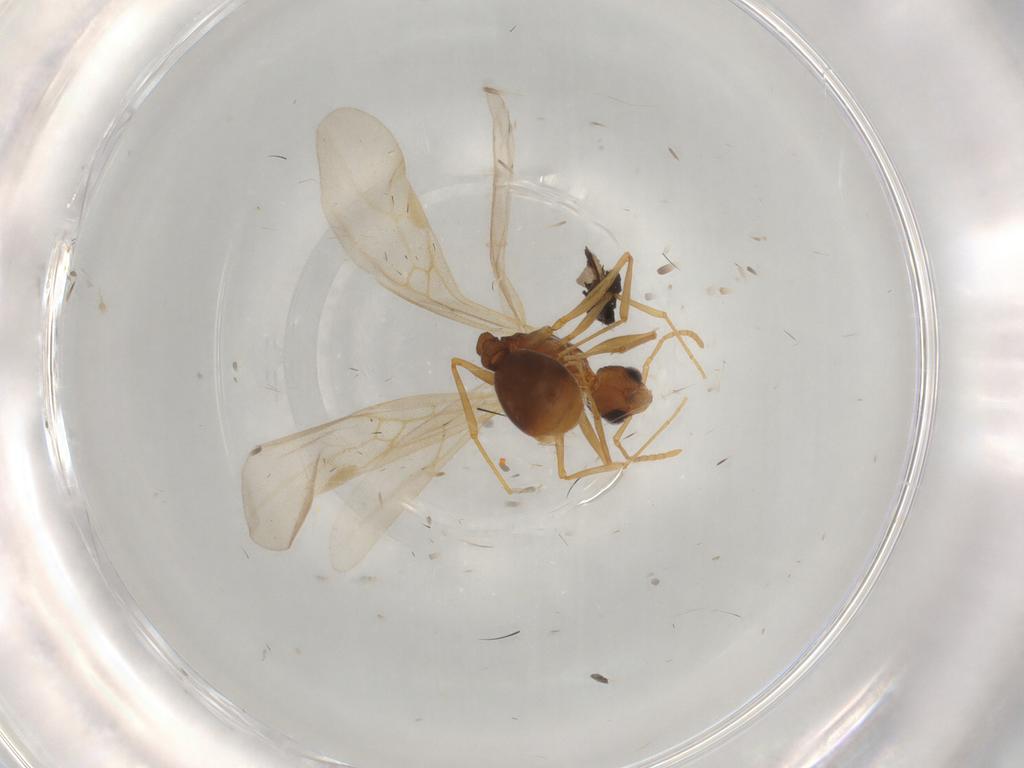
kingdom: Animalia
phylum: Arthropoda
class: Insecta
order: Hymenoptera
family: Formicidae
